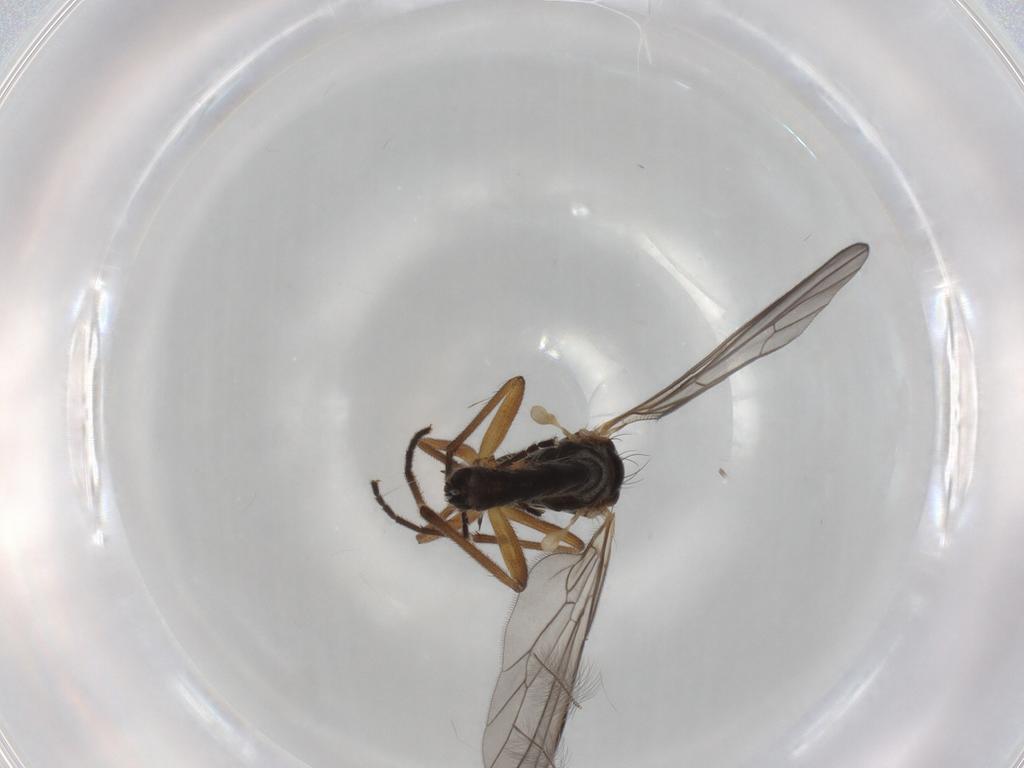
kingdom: Animalia
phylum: Arthropoda
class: Insecta
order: Diptera
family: Empididae
